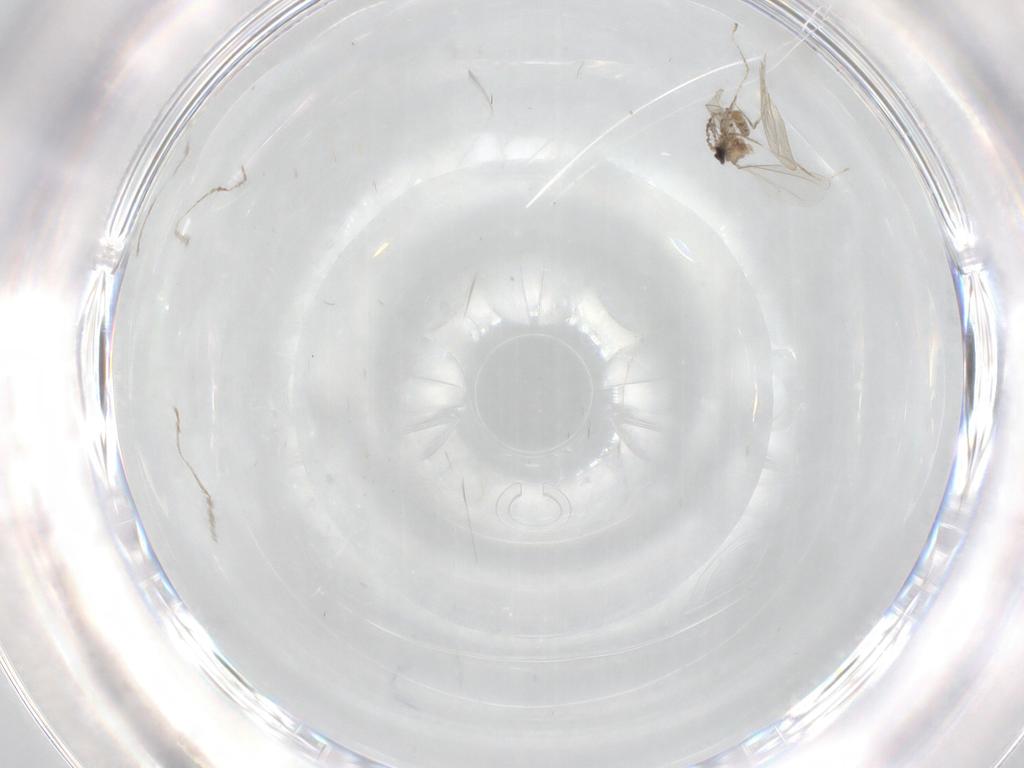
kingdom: Animalia
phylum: Arthropoda
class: Insecta
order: Diptera
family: Cecidomyiidae
